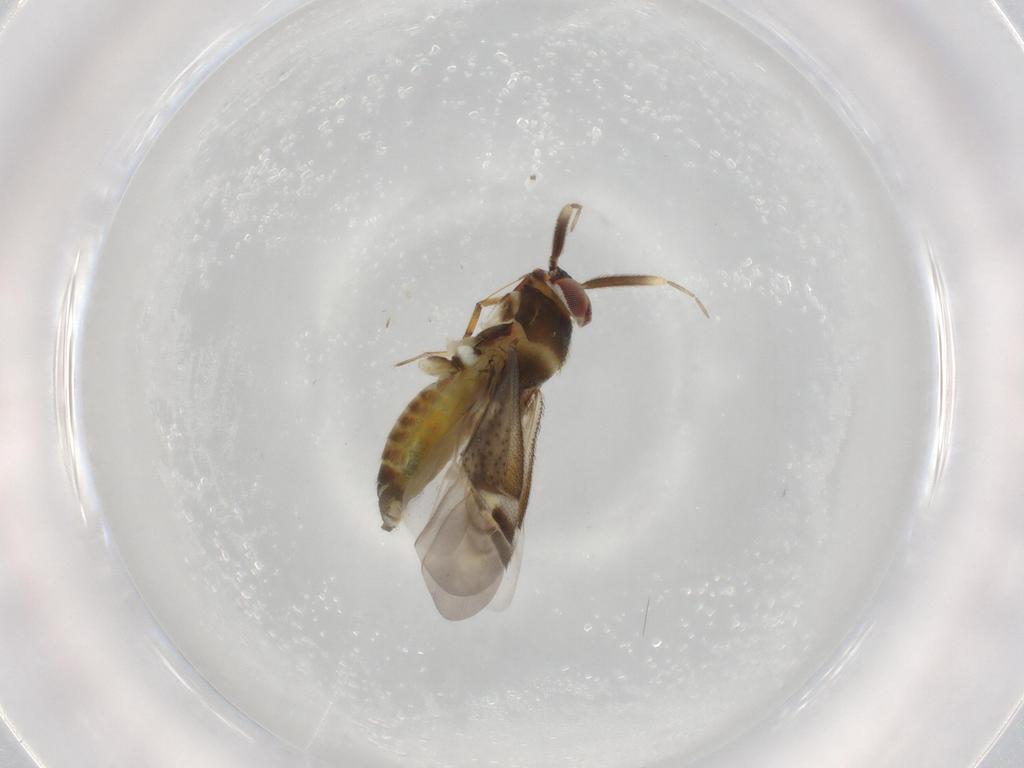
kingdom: Animalia
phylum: Arthropoda
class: Insecta
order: Hemiptera
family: Miridae
